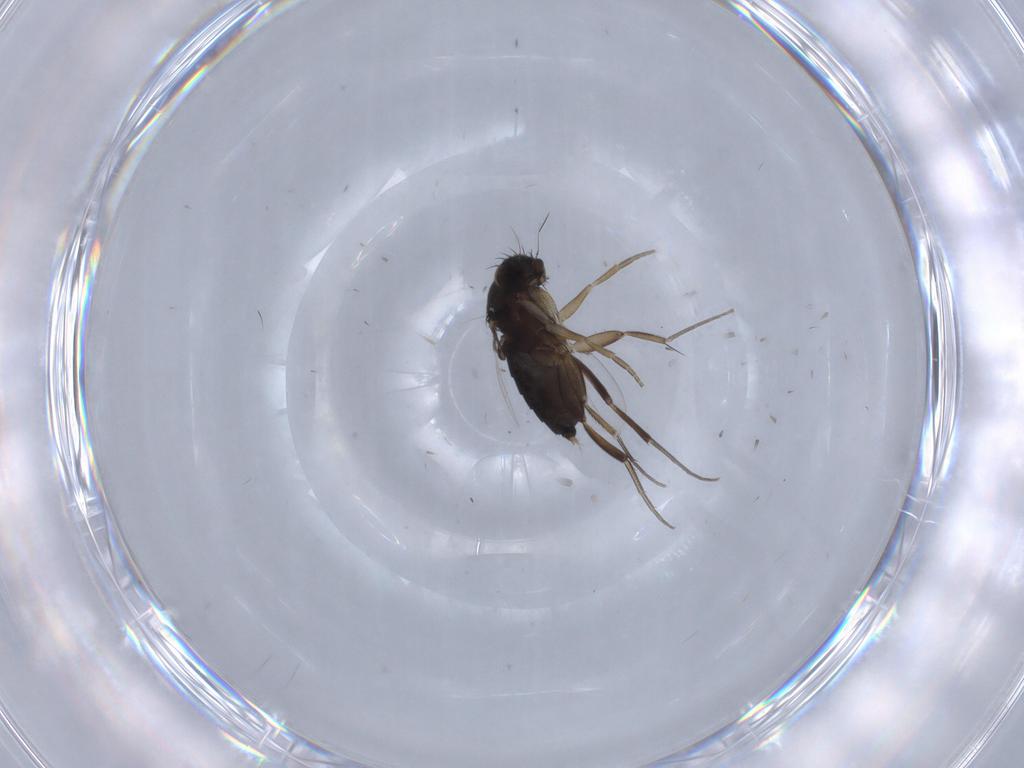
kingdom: Animalia
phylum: Arthropoda
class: Insecta
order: Diptera
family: Phoridae
